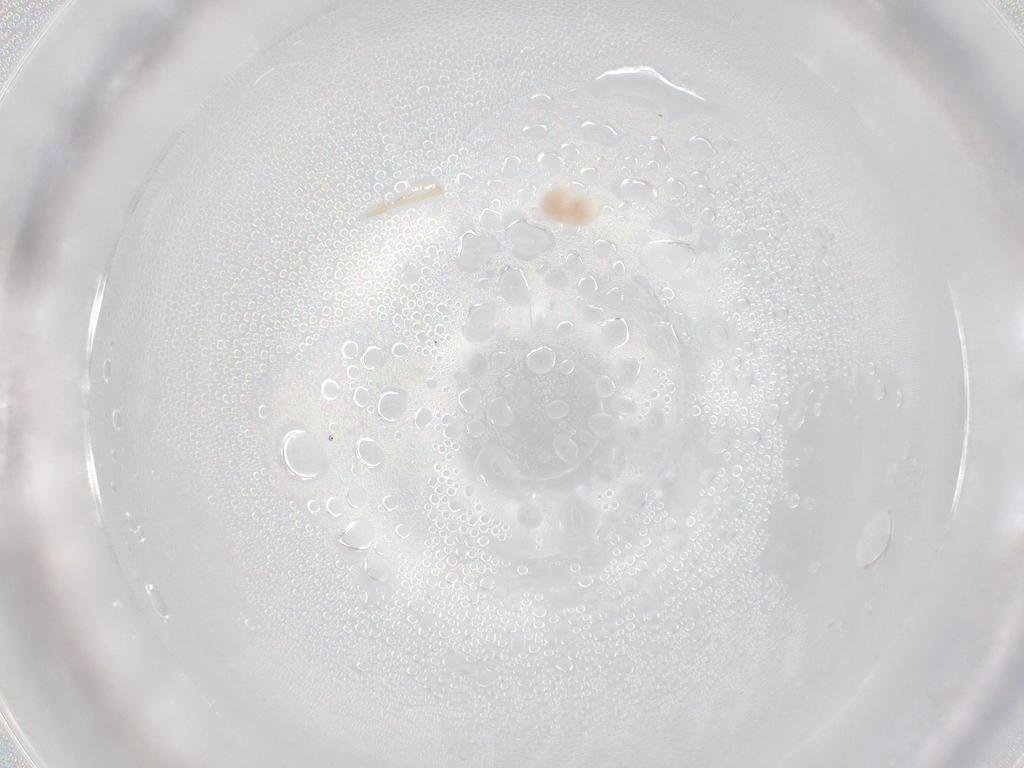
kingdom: Animalia
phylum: Arthropoda
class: Arachnida
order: Trombidiformes
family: Microtrombidiidae
